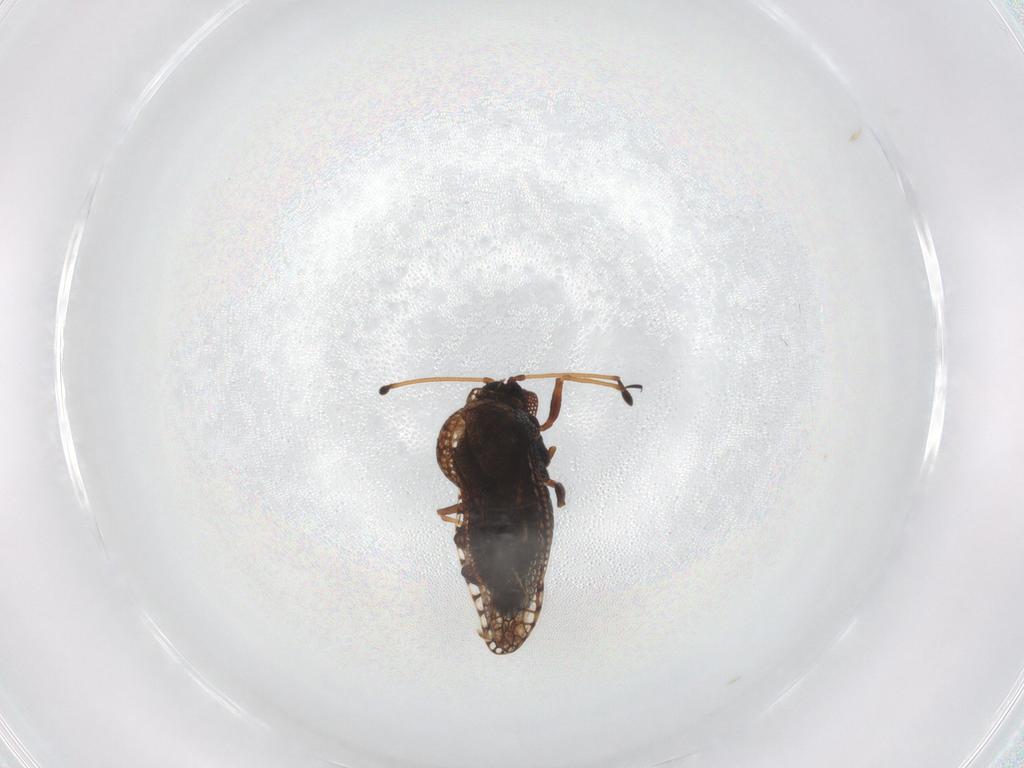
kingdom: Animalia
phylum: Arthropoda
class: Insecta
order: Hemiptera
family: Tingidae
